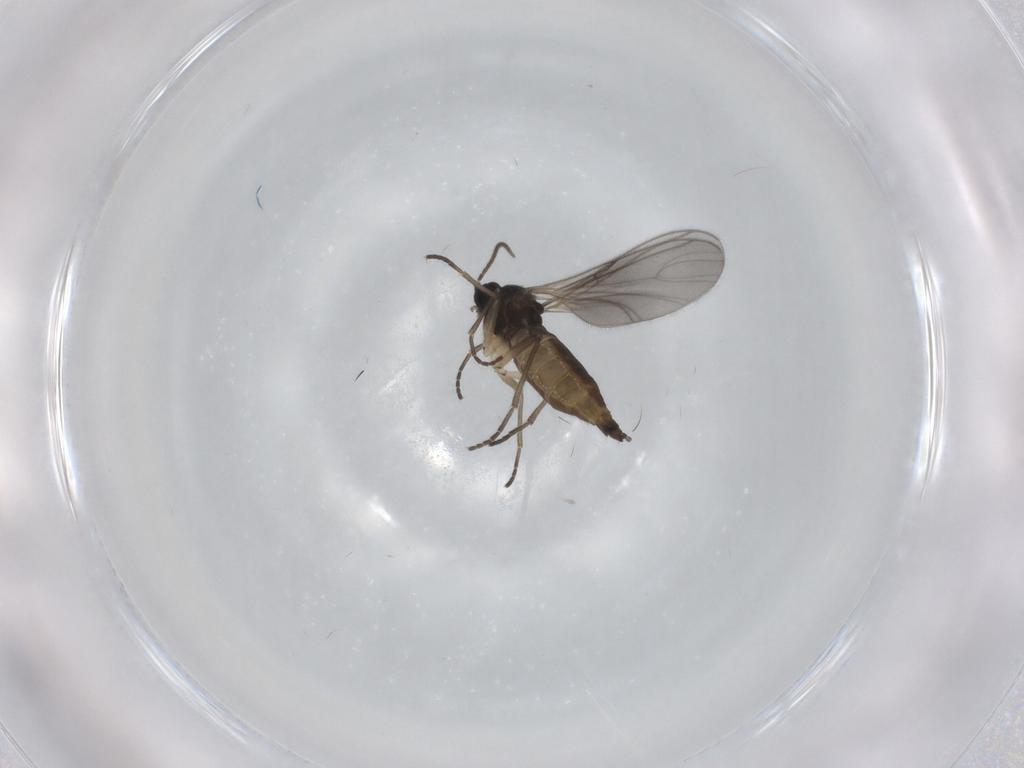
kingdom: Animalia
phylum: Arthropoda
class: Insecta
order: Diptera
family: Sciaridae
